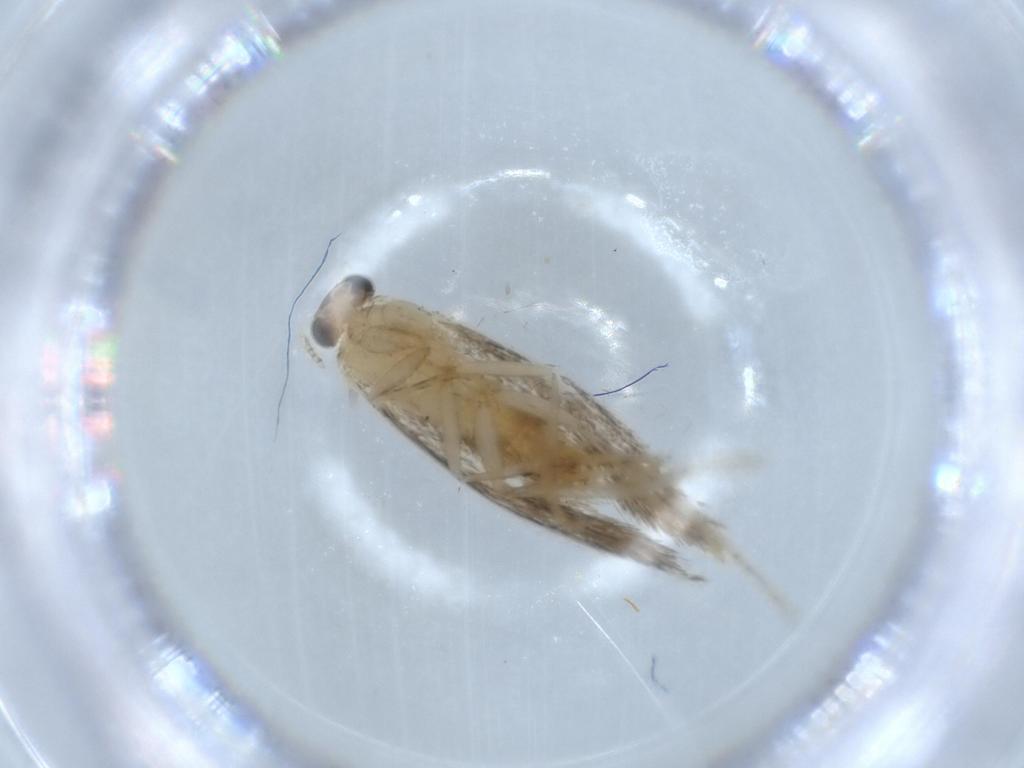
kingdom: Animalia
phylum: Arthropoda
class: Insecta
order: Lepidoptera
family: Tineidae
